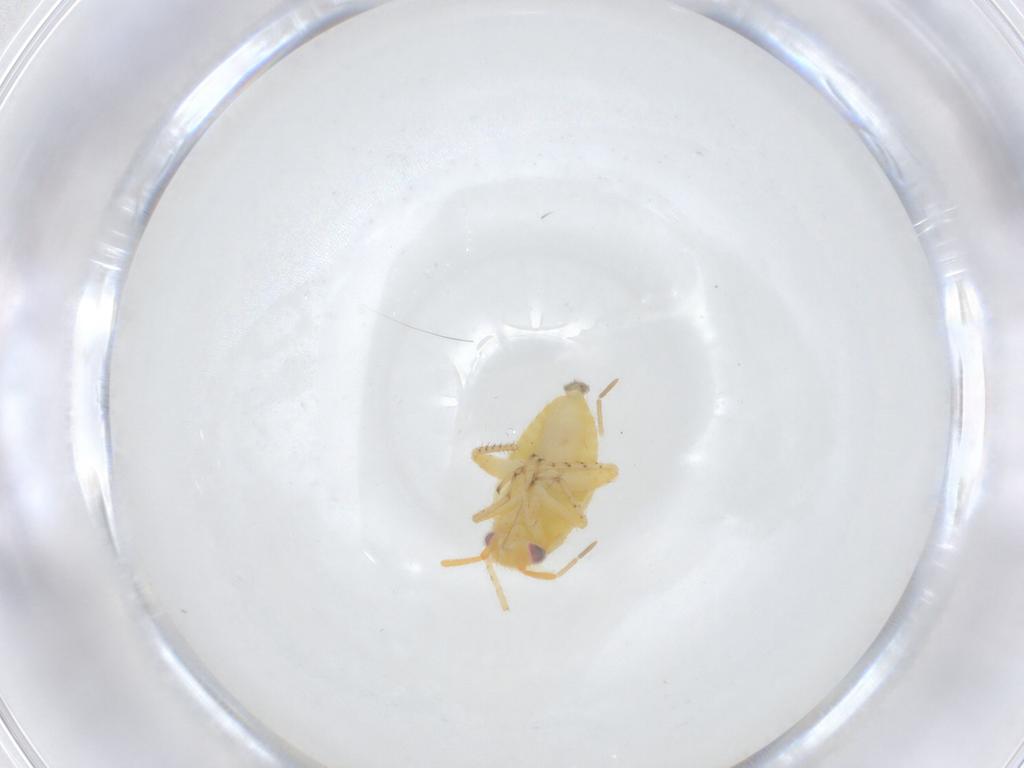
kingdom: Animalia
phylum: Arthropoda
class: Insecta
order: Hemiptera
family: Miridae
